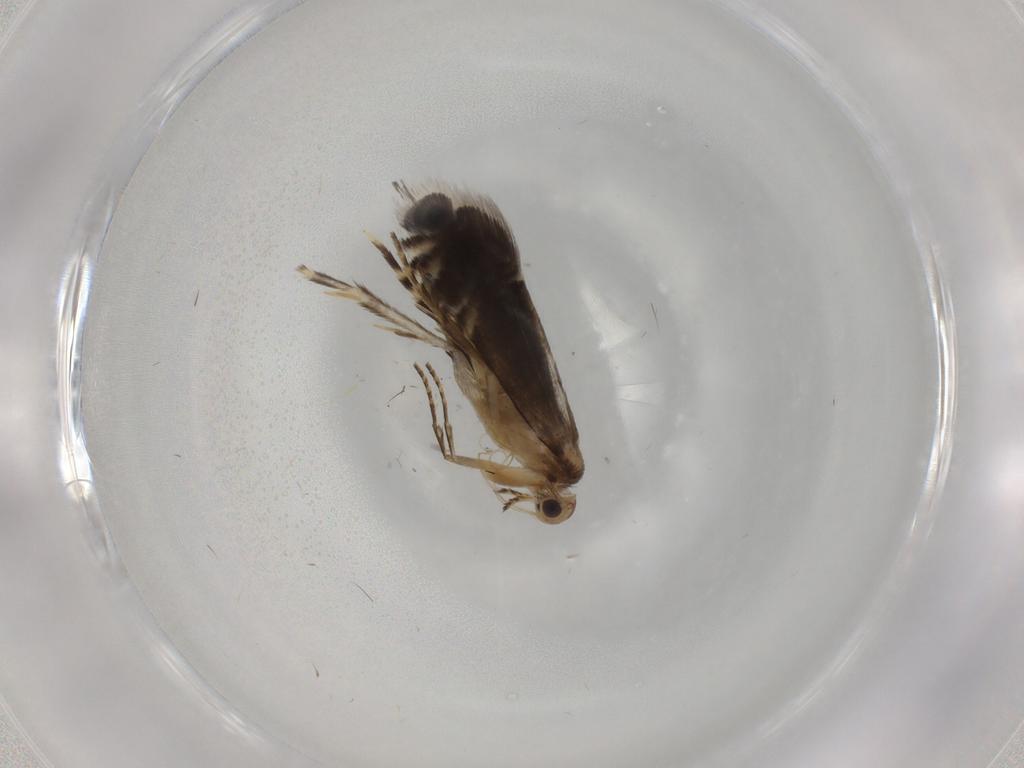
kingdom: Animalia
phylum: Arthropoda
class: Insecta
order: Lepidoptera
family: Glyphipterigidae
